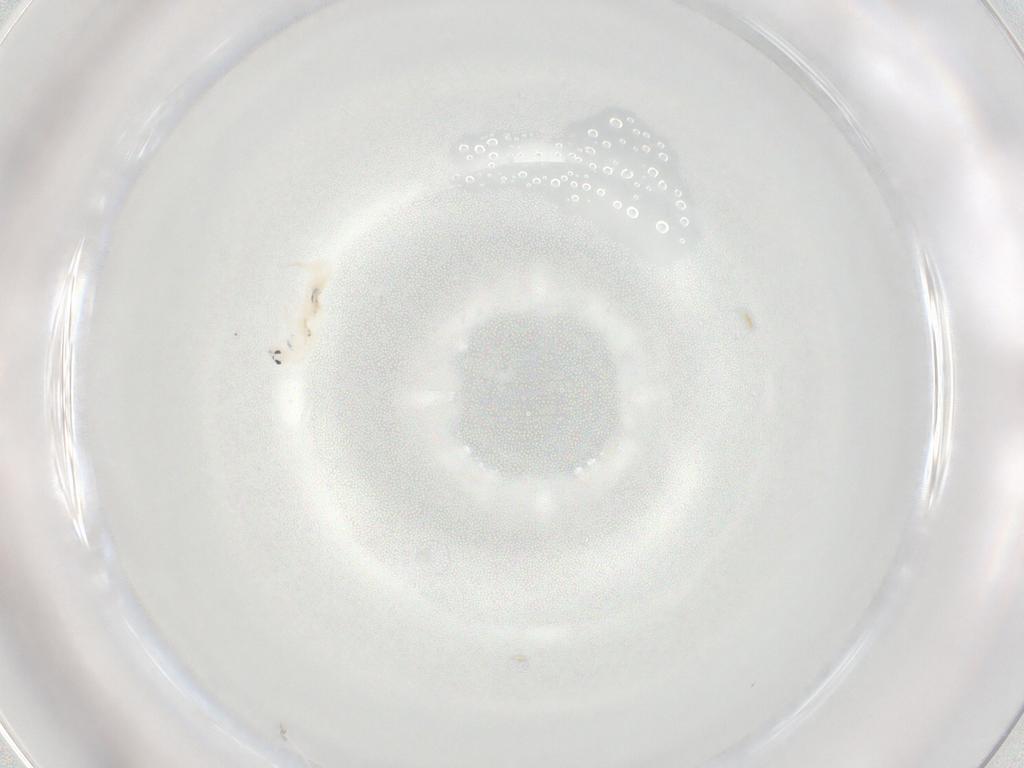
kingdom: Animalia
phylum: Arthropoda
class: Collembola
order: Entomobryomorpha
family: Entomobryidae
